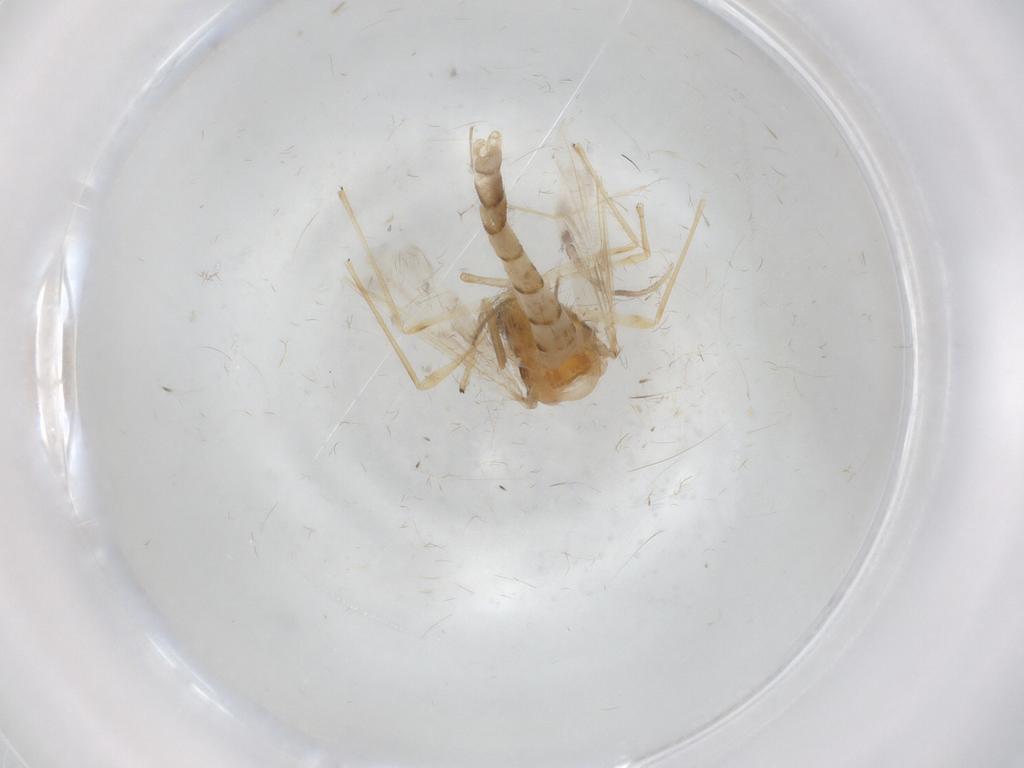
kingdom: Animalia
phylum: Arthropoda
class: Insecta
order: Diptera
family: Chironomidae
